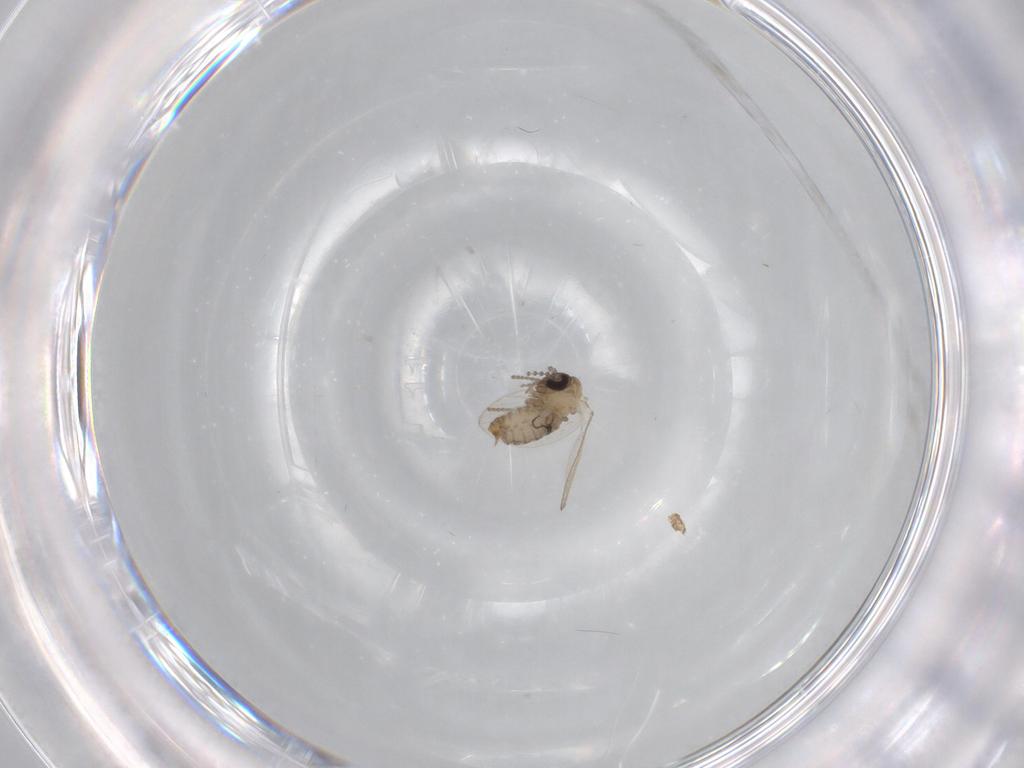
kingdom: Animalia
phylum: Arthropoda
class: Insecta
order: Diptera
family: Psychodidae
